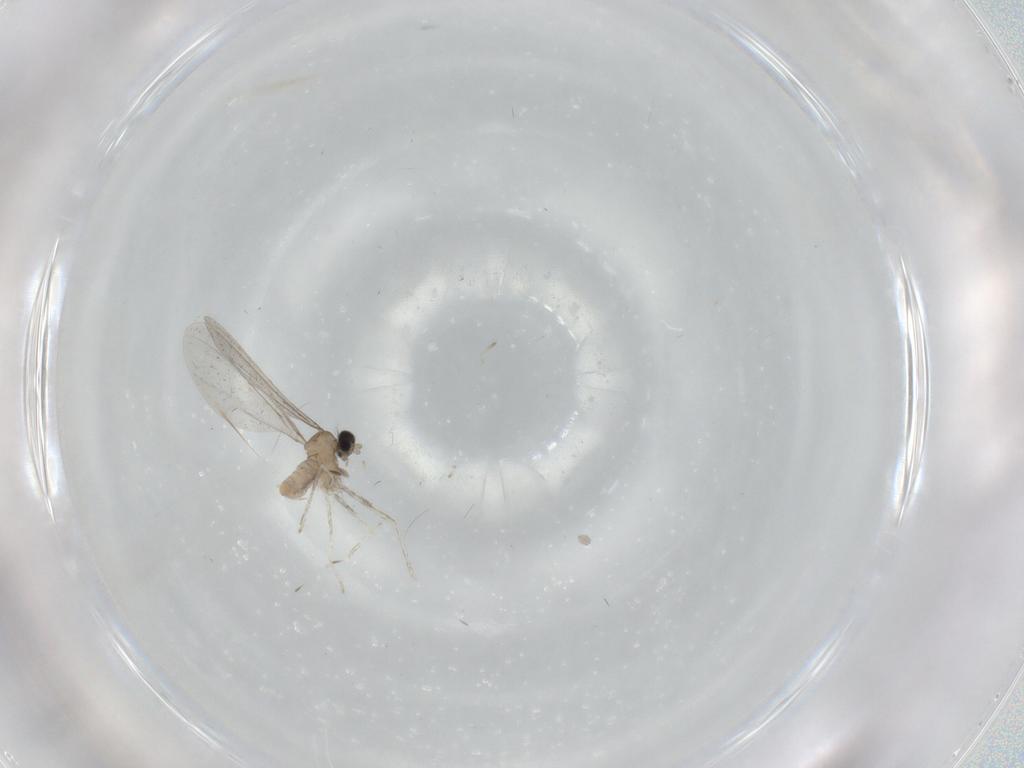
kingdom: Animalia
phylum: Arthropoda
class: Insecta
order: Diptera
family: Cecidomyiidae
